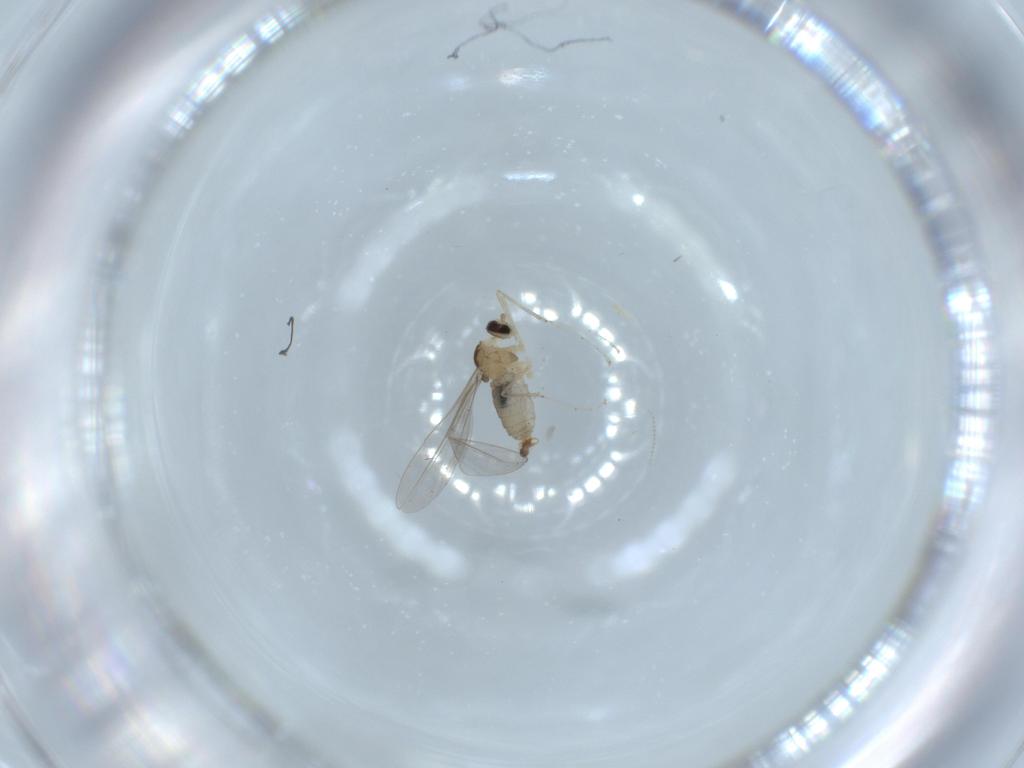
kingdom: Animalia
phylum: Arthropoda
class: Insecta
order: Diptera
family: Cecidomyiidae
